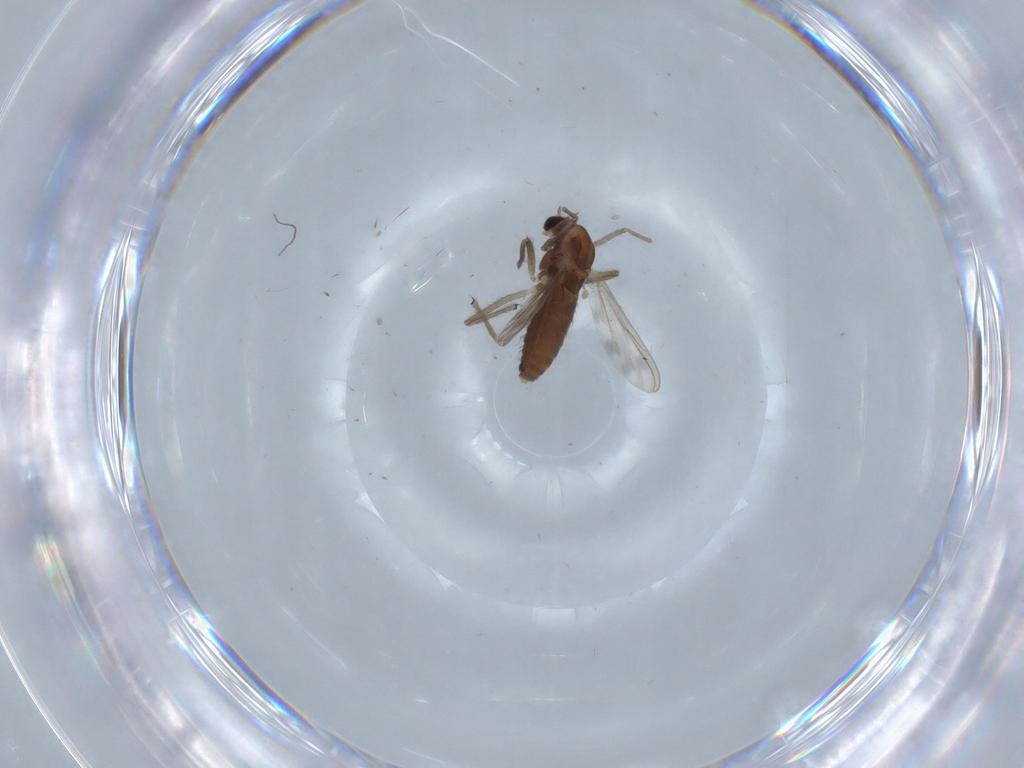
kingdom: Animalia
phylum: Arthropoda
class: Insecta
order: Diptera
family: Chironomidae
